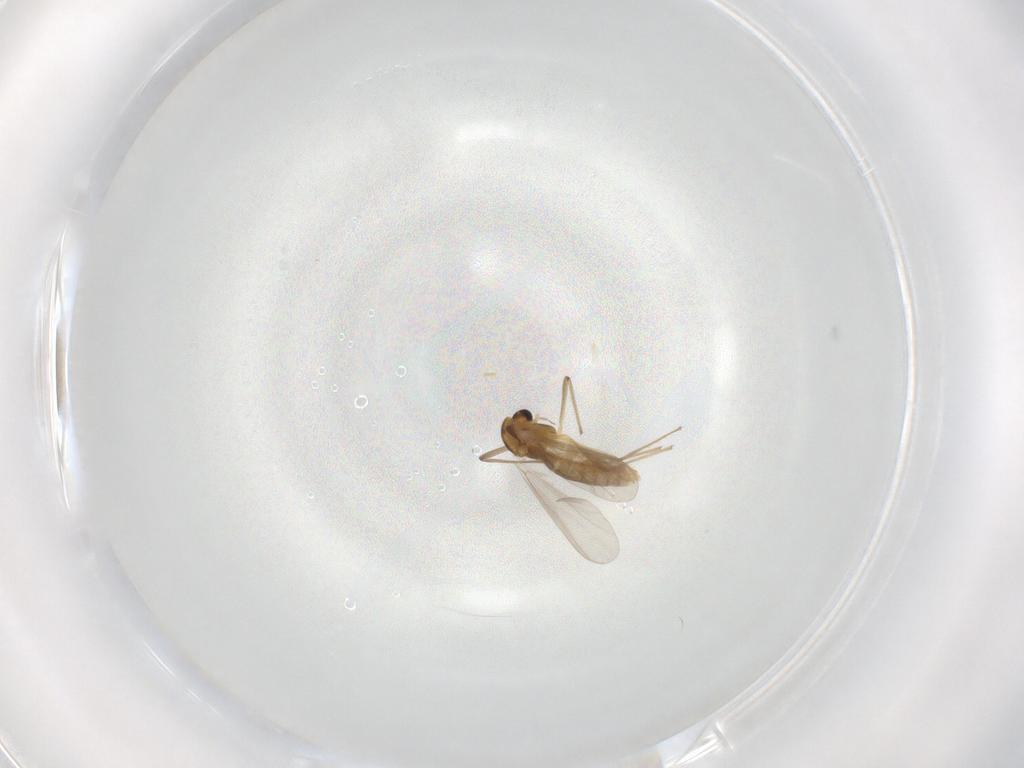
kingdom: Animalia
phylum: Arthropoda
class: Insecta
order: Diptera
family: Chironomidae
